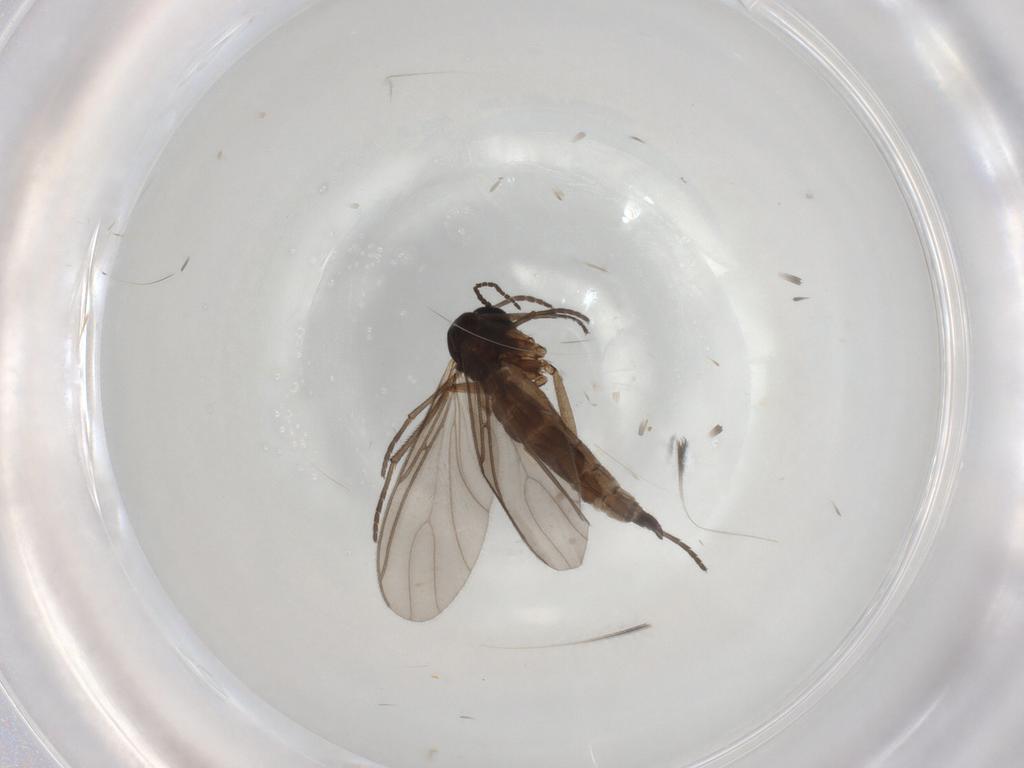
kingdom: Animalia
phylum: Arthropoda
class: Insecta
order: Diptera
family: Sciaridae
